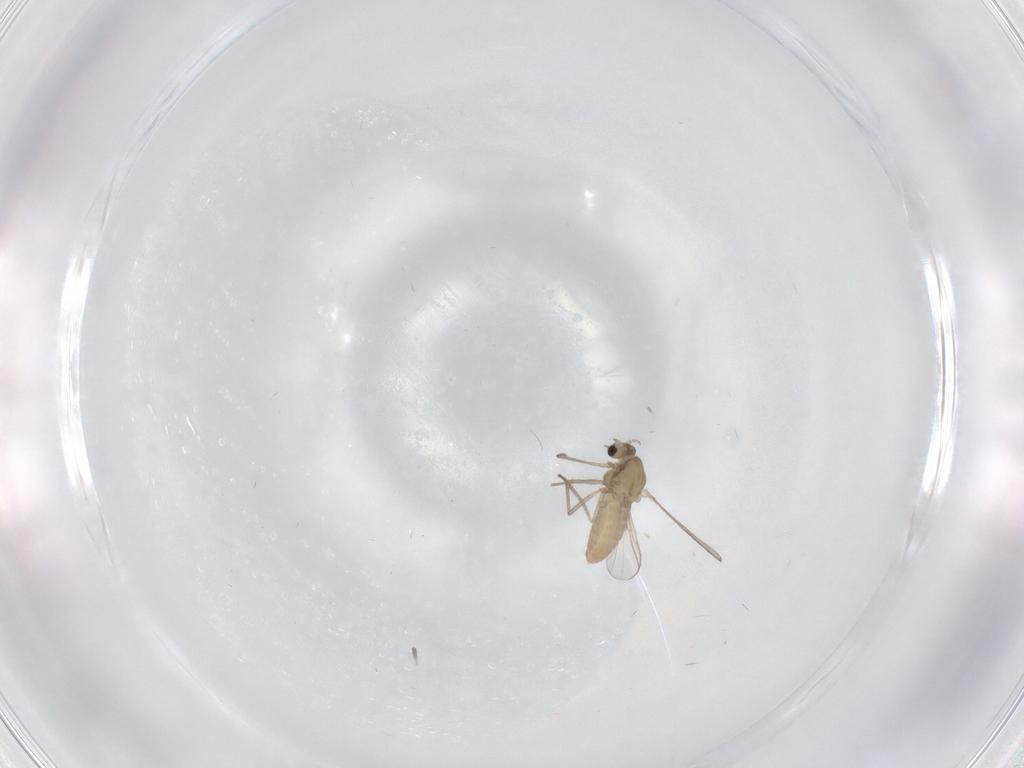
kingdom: Animalia
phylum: Arthropoda
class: Insecta
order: Diptera
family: Chironomidae
